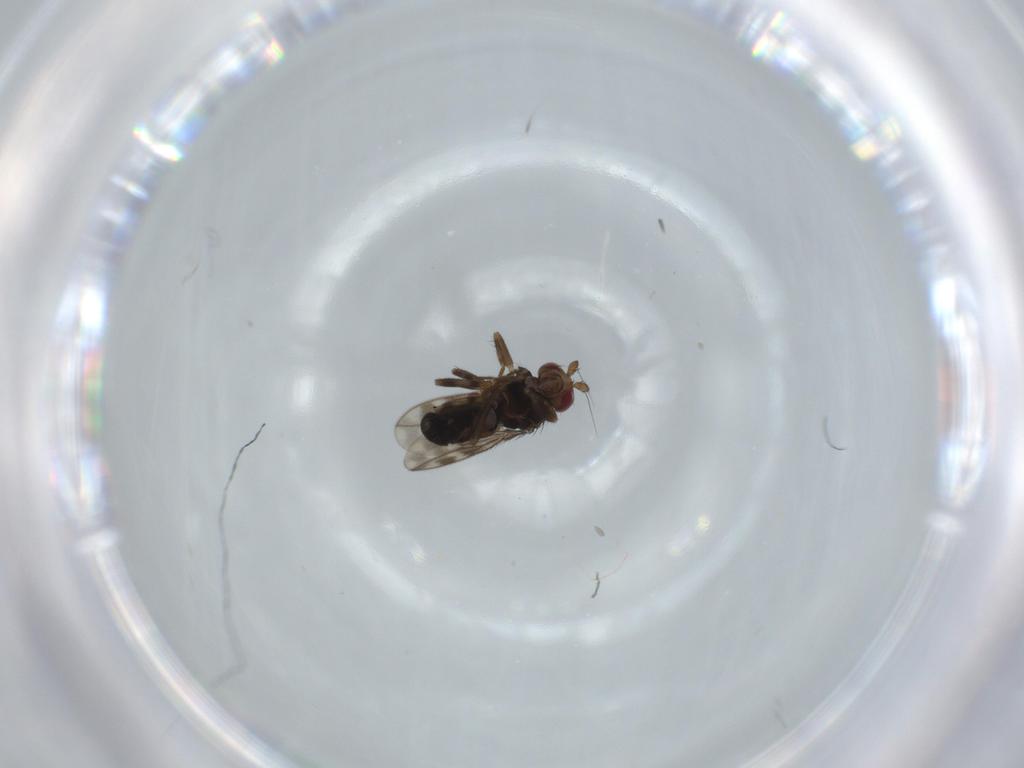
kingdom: Animalia
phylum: Arthropoda
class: Insecta
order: Diptera
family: Sphaeroceridae
